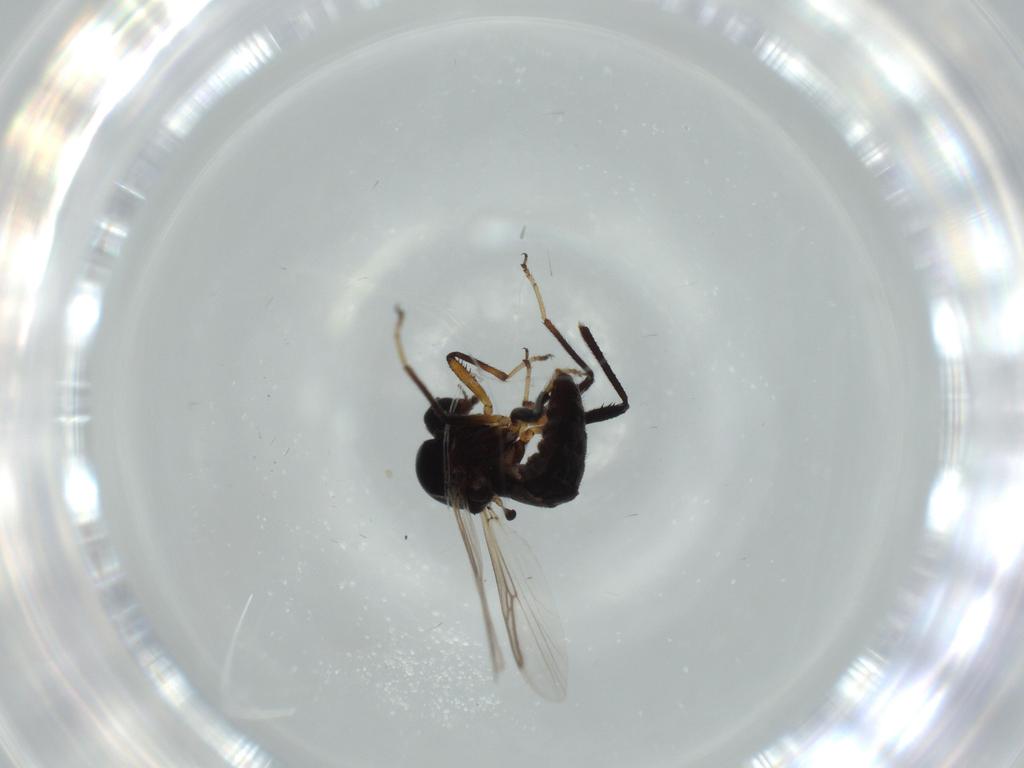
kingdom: Animalia
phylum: Arthropoda
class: Insecta
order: Diptera
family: Ceratopogonidae
